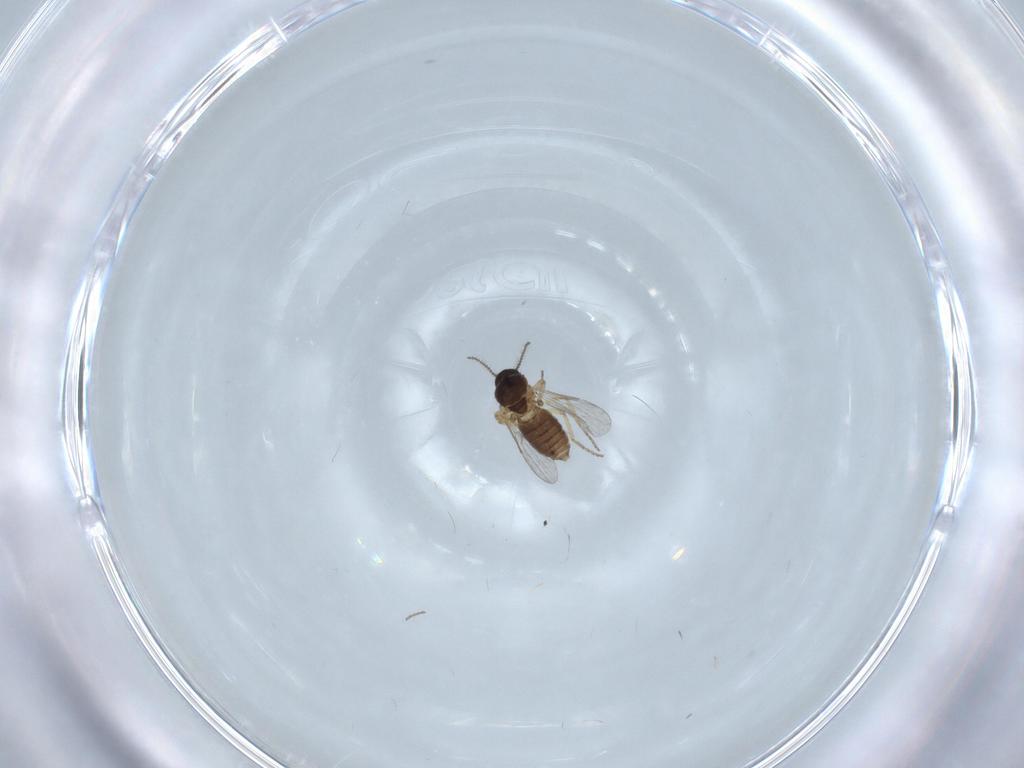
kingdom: Animalia
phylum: Arthropoda
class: Insecta
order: Diptera
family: Ceratopogonidae
